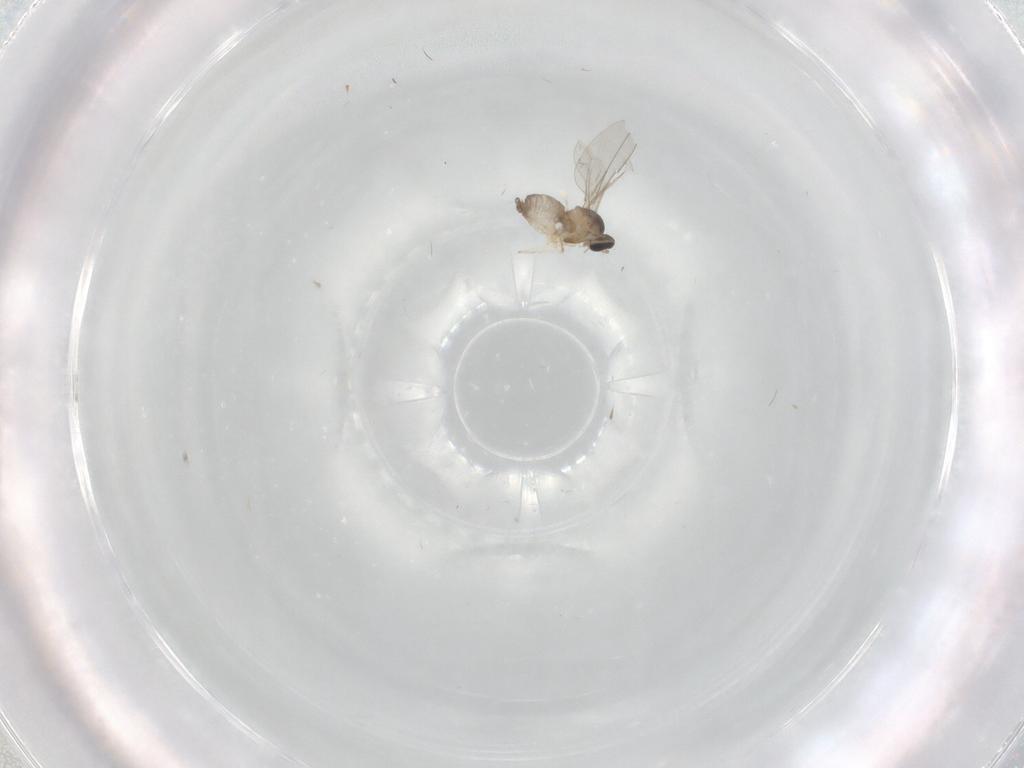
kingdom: Animalia
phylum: Arthropoda
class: Insecta
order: Diptera
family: Cecidomyiidae
